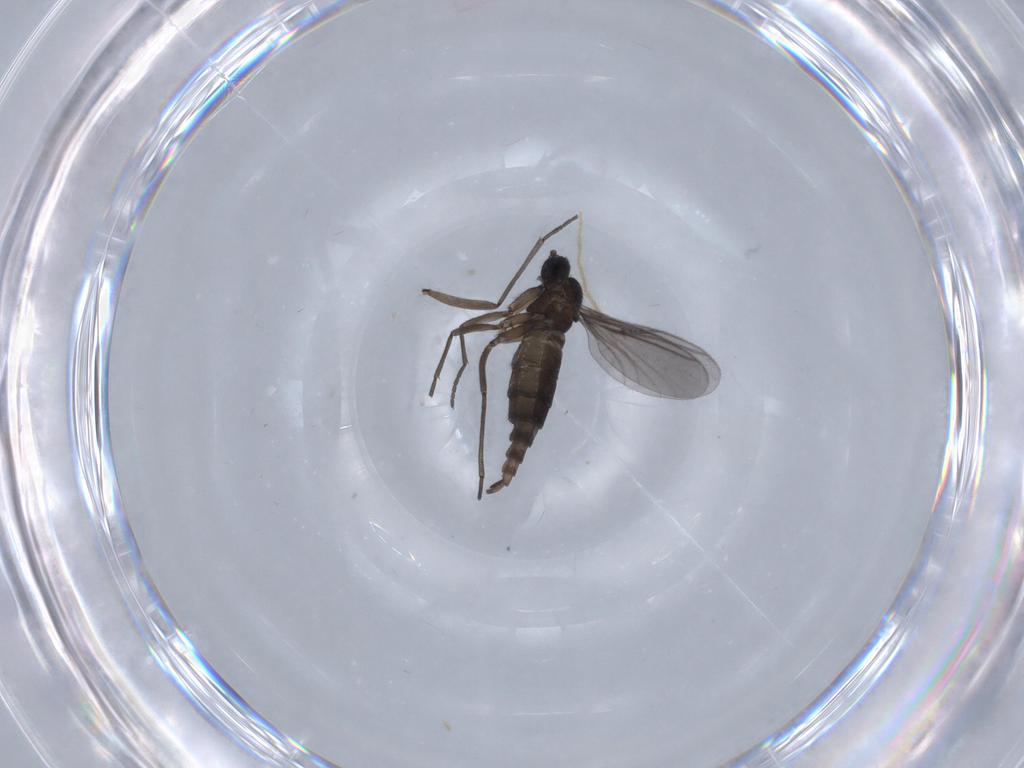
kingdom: Animalia
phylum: Arthropoda
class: Insecta
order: Diptera
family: Chironomidae
